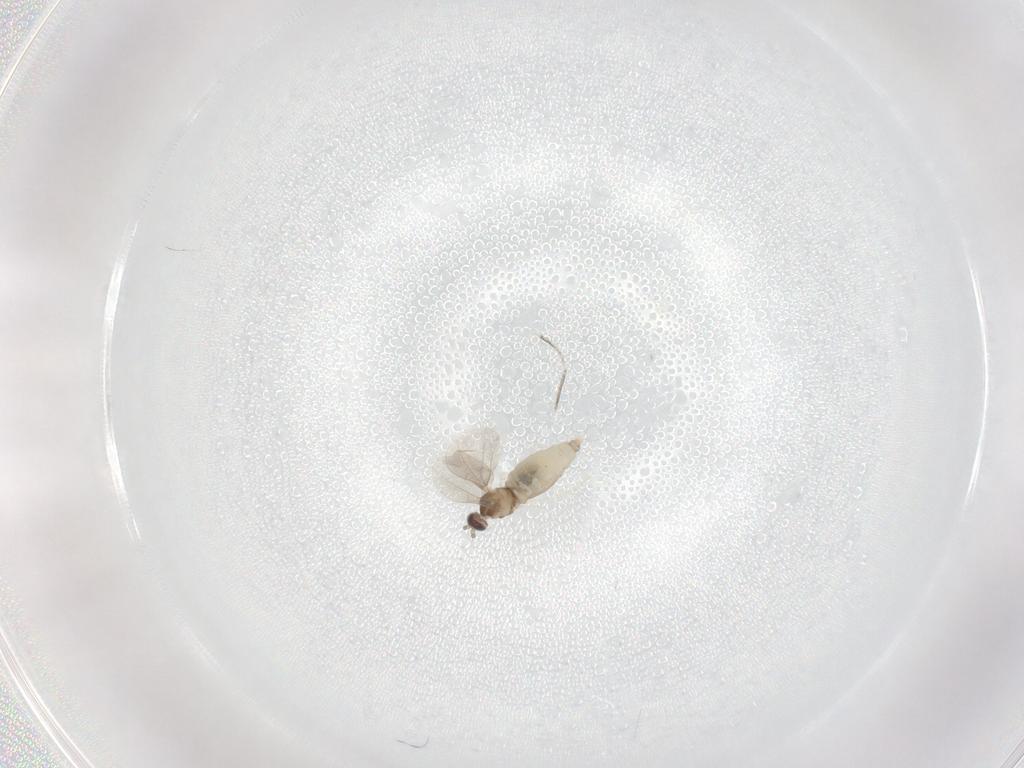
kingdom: Animalia
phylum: Arthropoda
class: Insecta
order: Diptera
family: Cecidomyiidae
